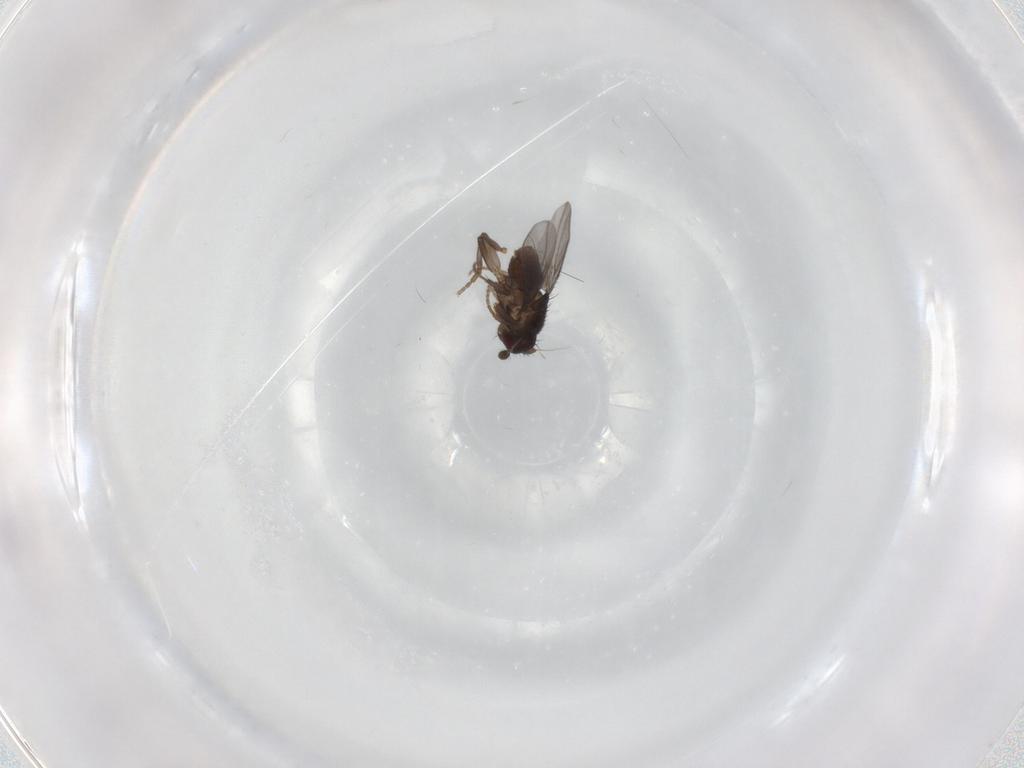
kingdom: Animalia
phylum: Arthropoda
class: Insecta
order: Diptera
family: Sphaeroceridae
